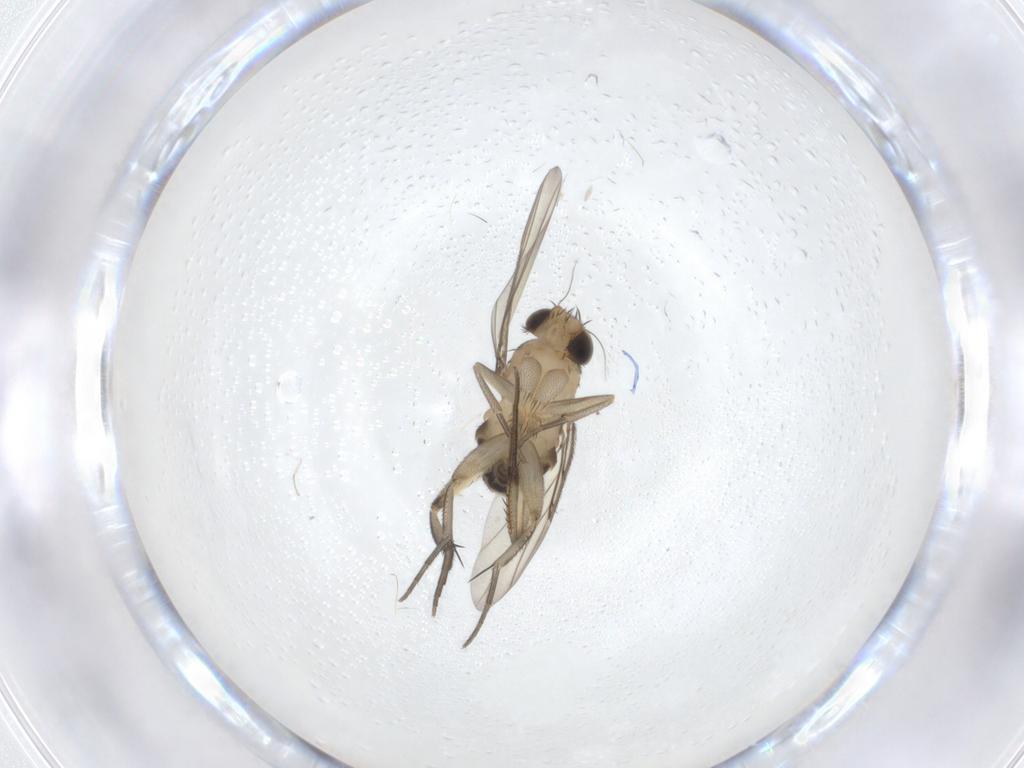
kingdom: Animalia
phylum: Arthropoda
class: Insecta
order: Diptera
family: Phoridae
